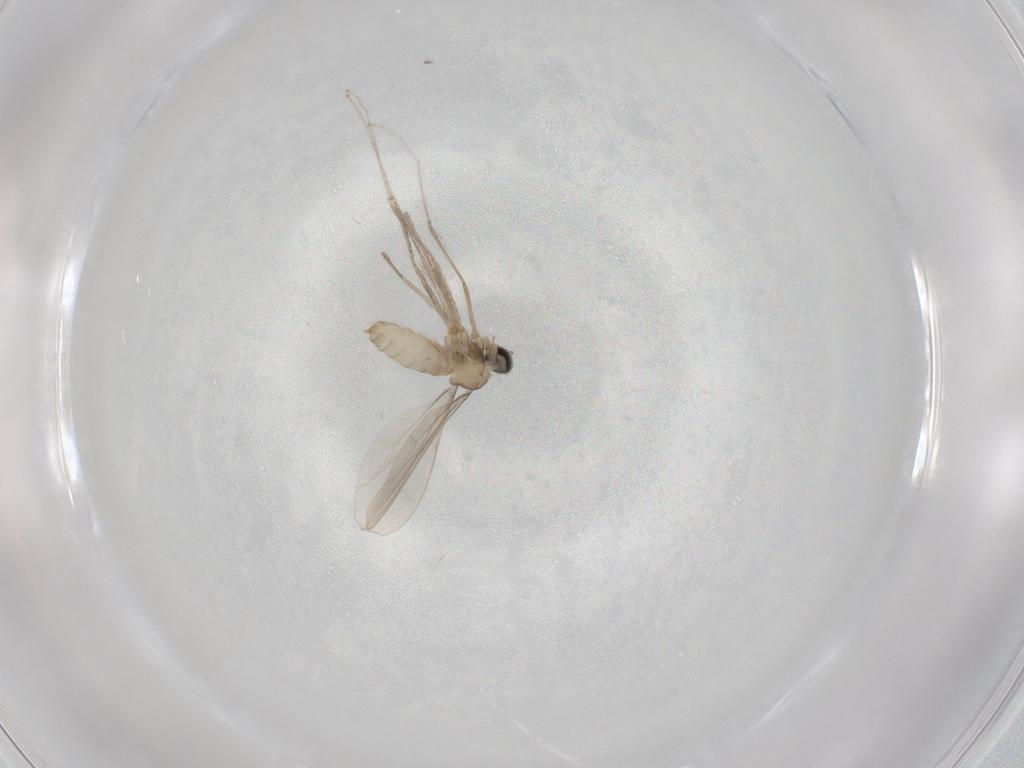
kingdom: Animalia
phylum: Arthropoda
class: Insecta
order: Diptera
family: Cecidomyiidae
